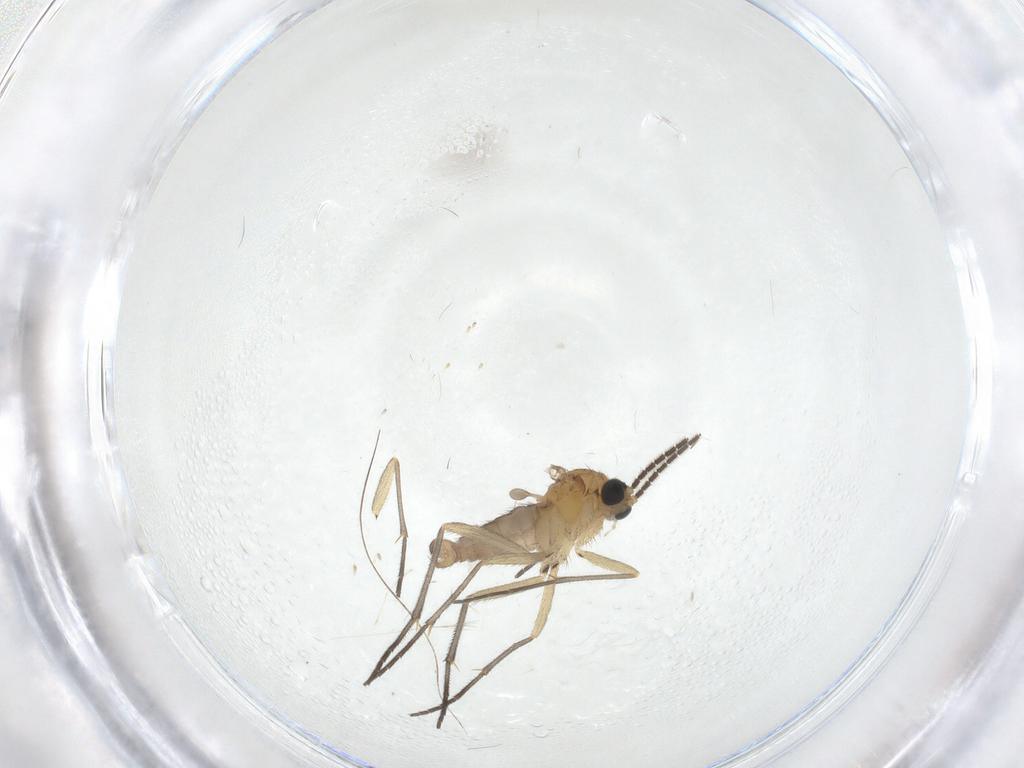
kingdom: Animalia
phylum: Arthropoda
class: Insecta
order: Diptera
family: Sciaridae
